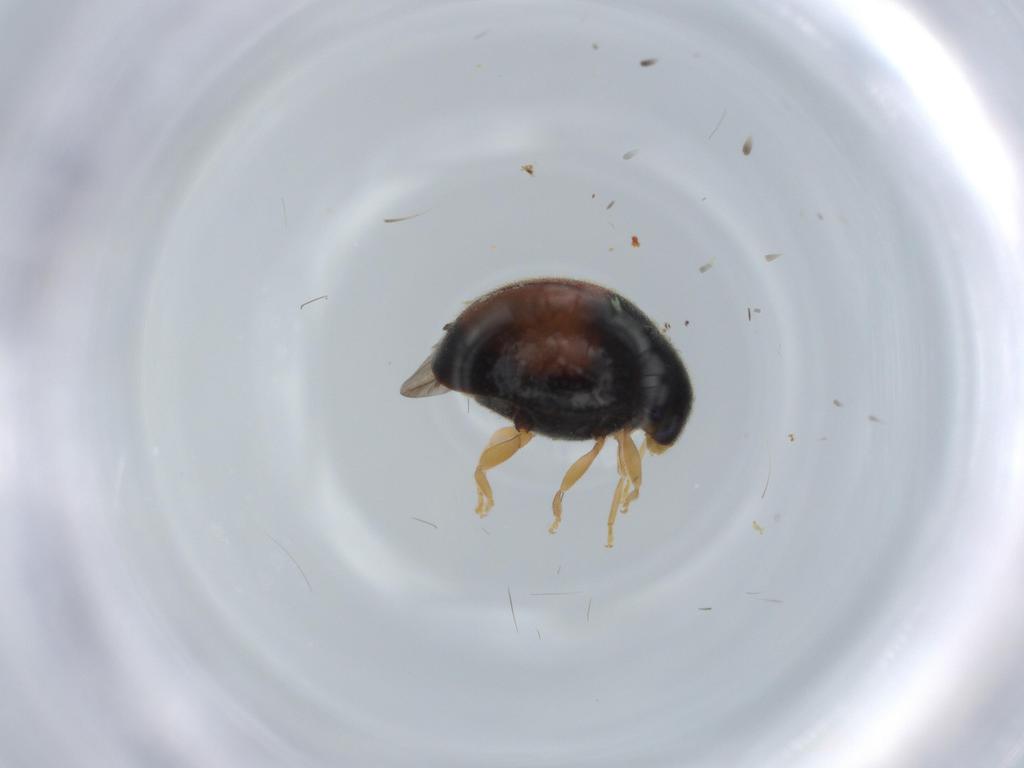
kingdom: Animalia
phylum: Arthropoda
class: Insecta
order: Coleoptera
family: Coccinellidae
